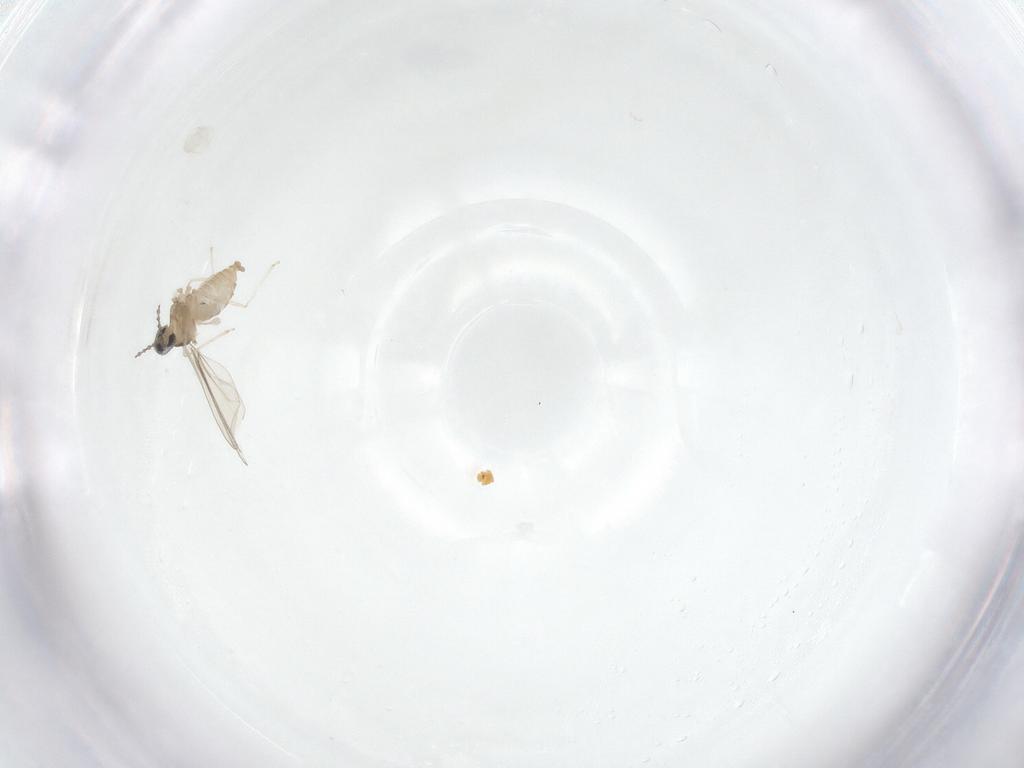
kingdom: Animalia
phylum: Arthropoda
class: Insecta
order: Diptera
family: Cecidomyiidae
